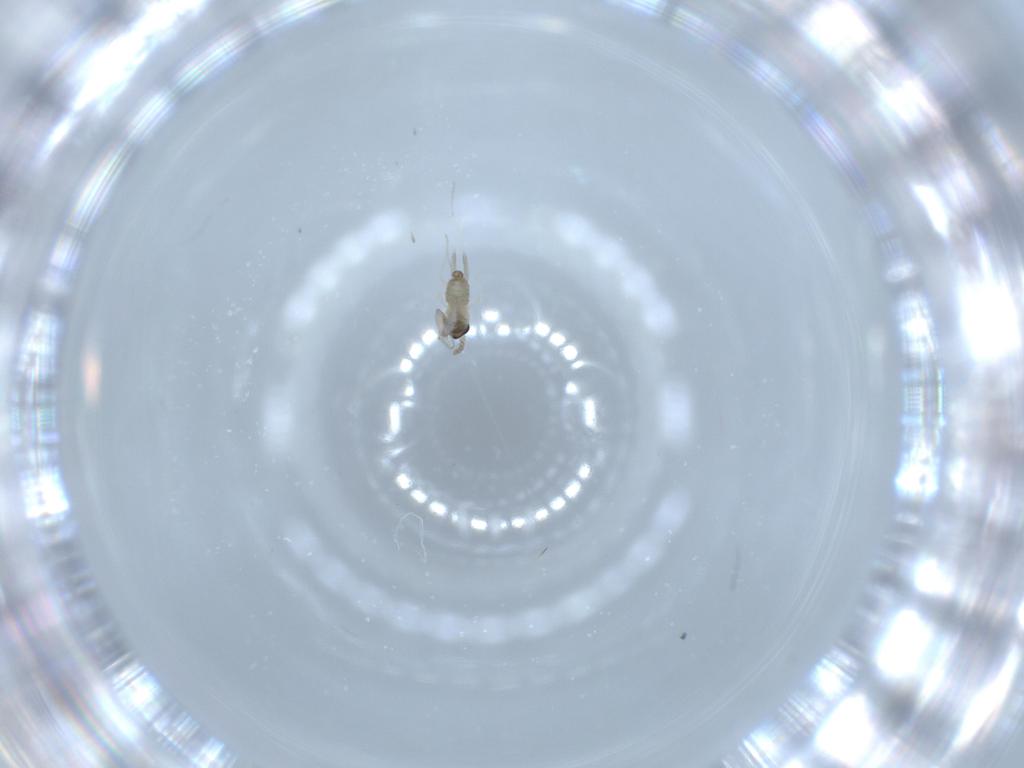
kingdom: Animalia
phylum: Arthropoda
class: Insecta
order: Diptera
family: Cecidomyiidae
